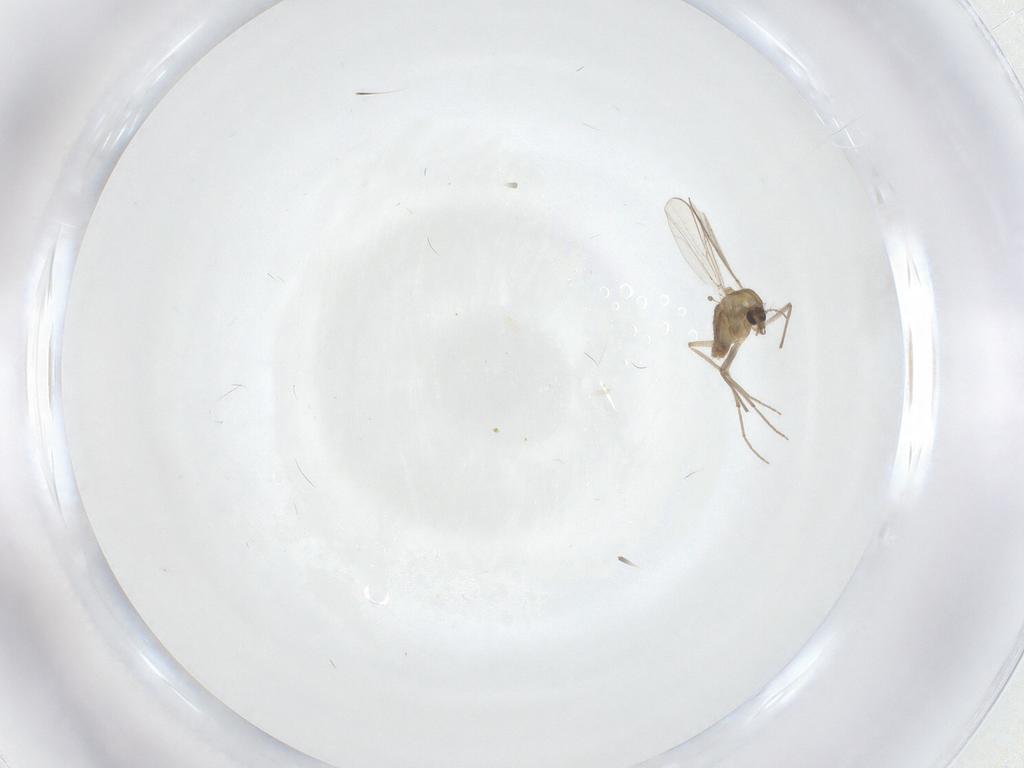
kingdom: Animalia
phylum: Arthropoda
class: Insecta
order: Diptera
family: Chironomidae
